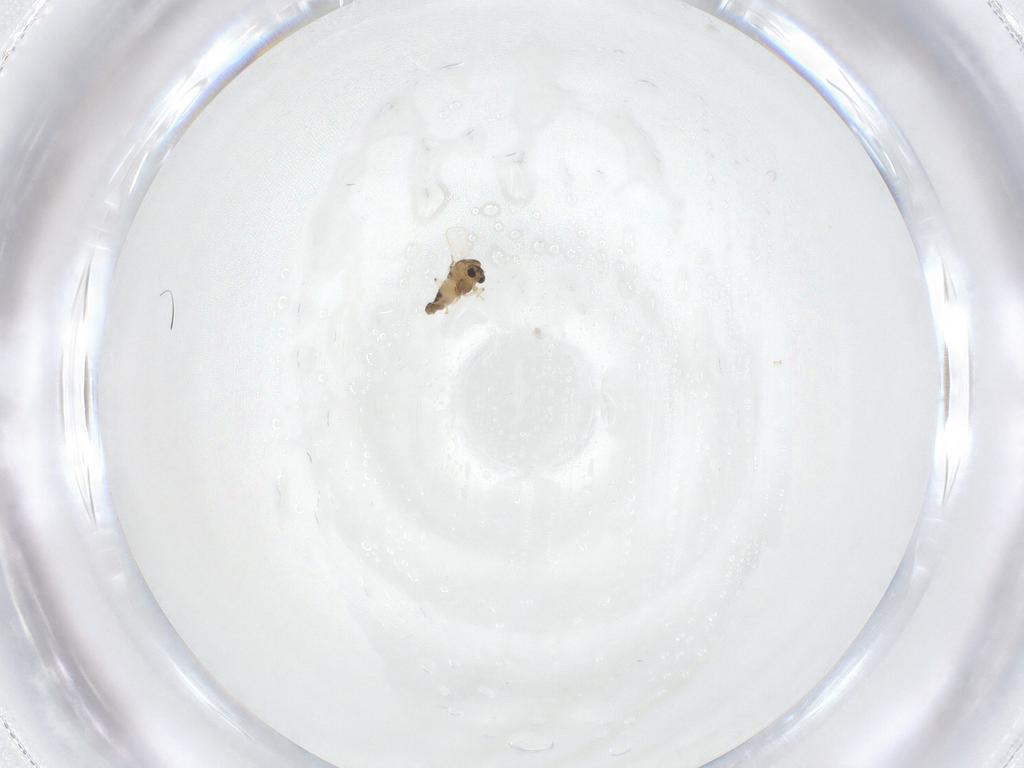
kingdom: Animalia
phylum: Arthropoda
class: Insecta
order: Diptera
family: Chironomidae
